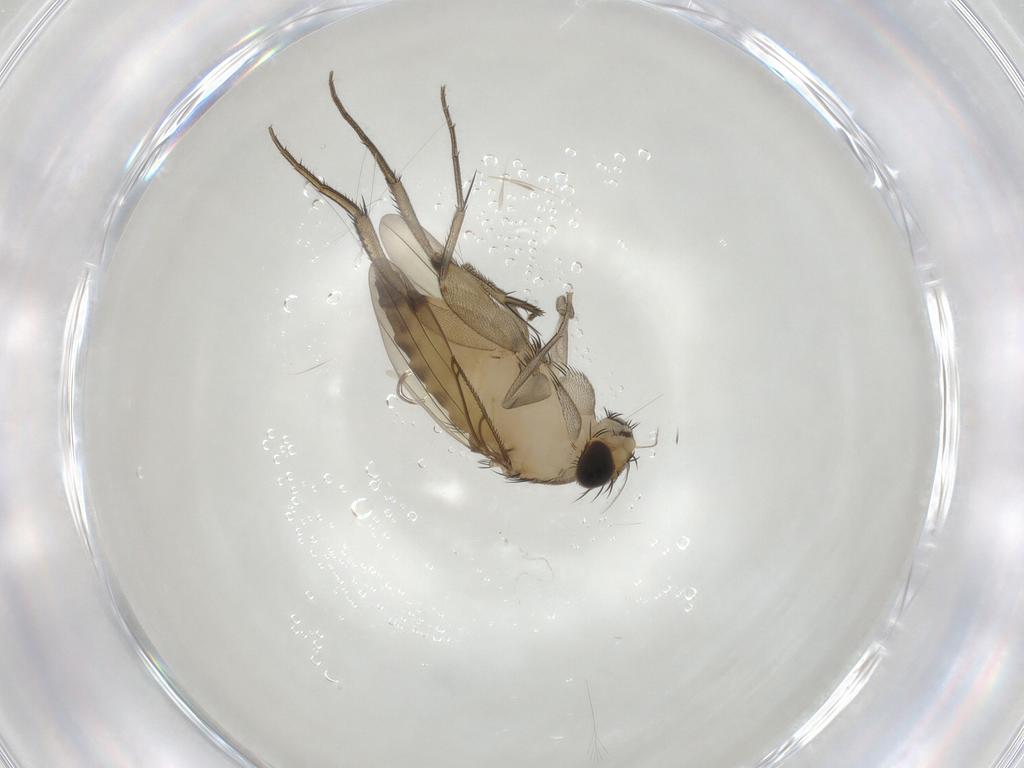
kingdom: Animalia
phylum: Arthropoda
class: Insecta
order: Diptera
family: Phoridae
